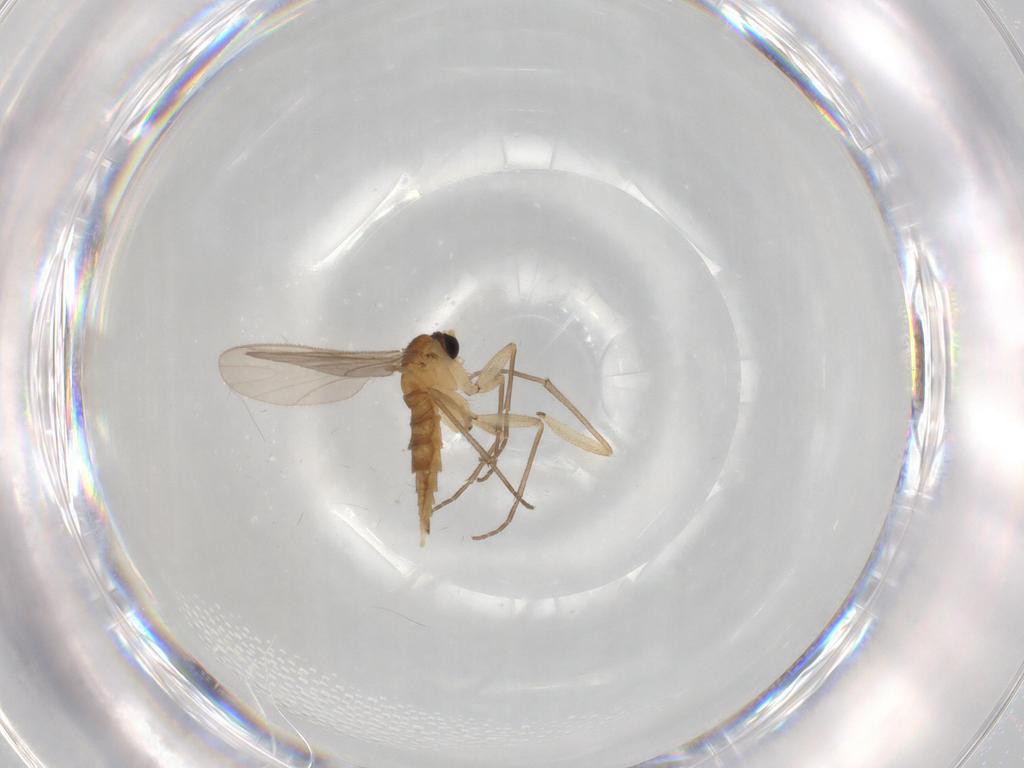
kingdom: Animalia
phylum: Arthropoda
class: Insecta
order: Diptera
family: Sciaridae
